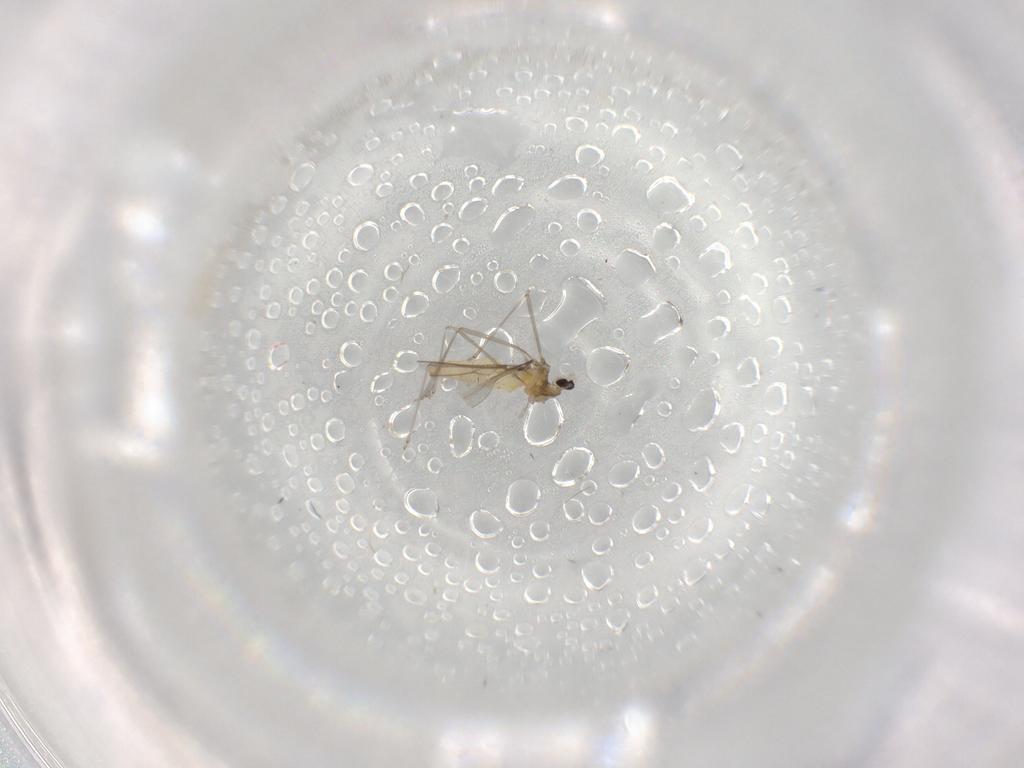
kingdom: Animalia
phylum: Arthropoda
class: Insecta
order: Diptera
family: Cecidomyiidae
